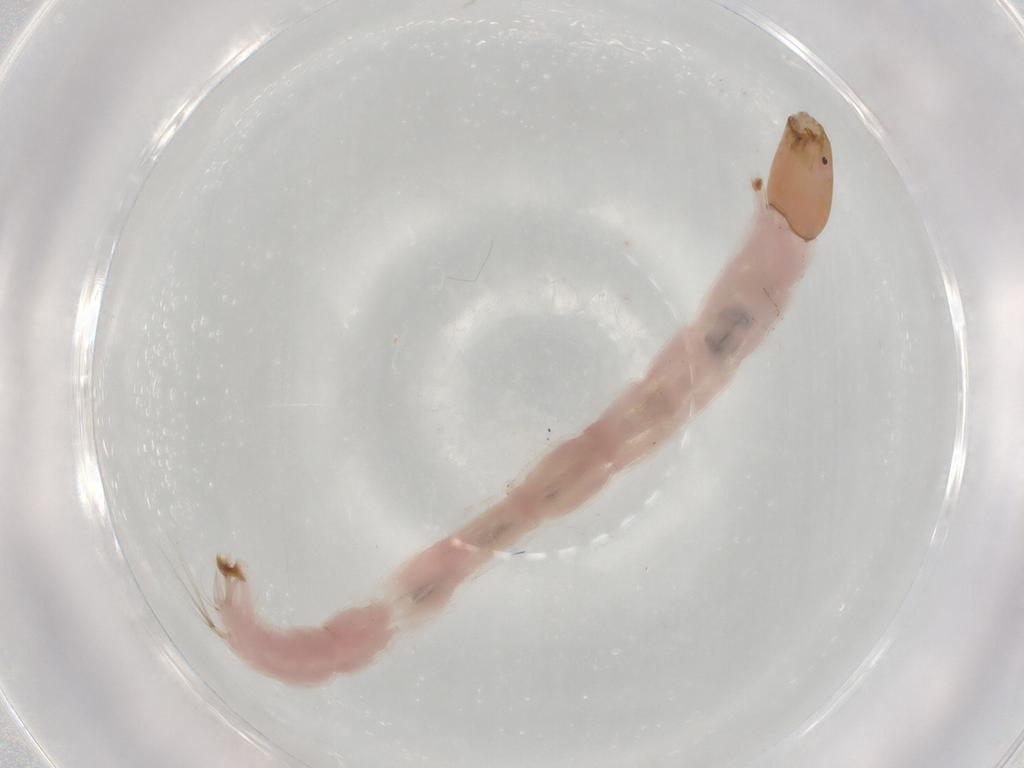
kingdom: Animalia
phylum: Arthropoda
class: Insecta
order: Diptera
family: Chironomidae
